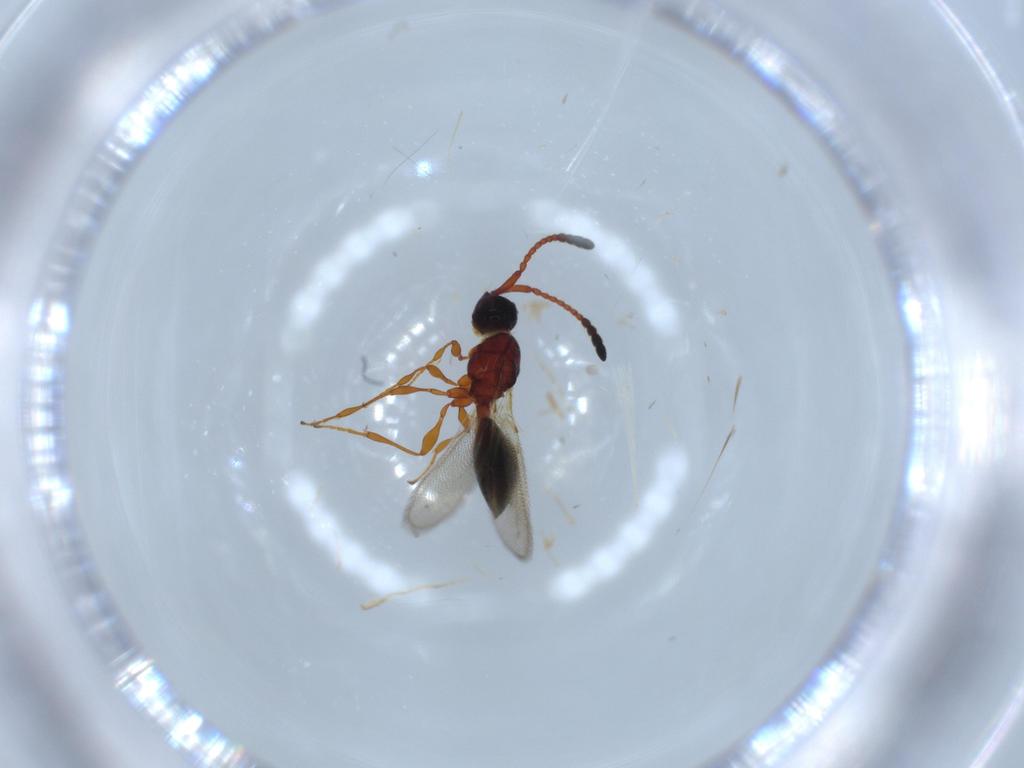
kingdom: Animalia
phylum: Arthropoda
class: Insecta
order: Hymenoptera
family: Diapriidae
